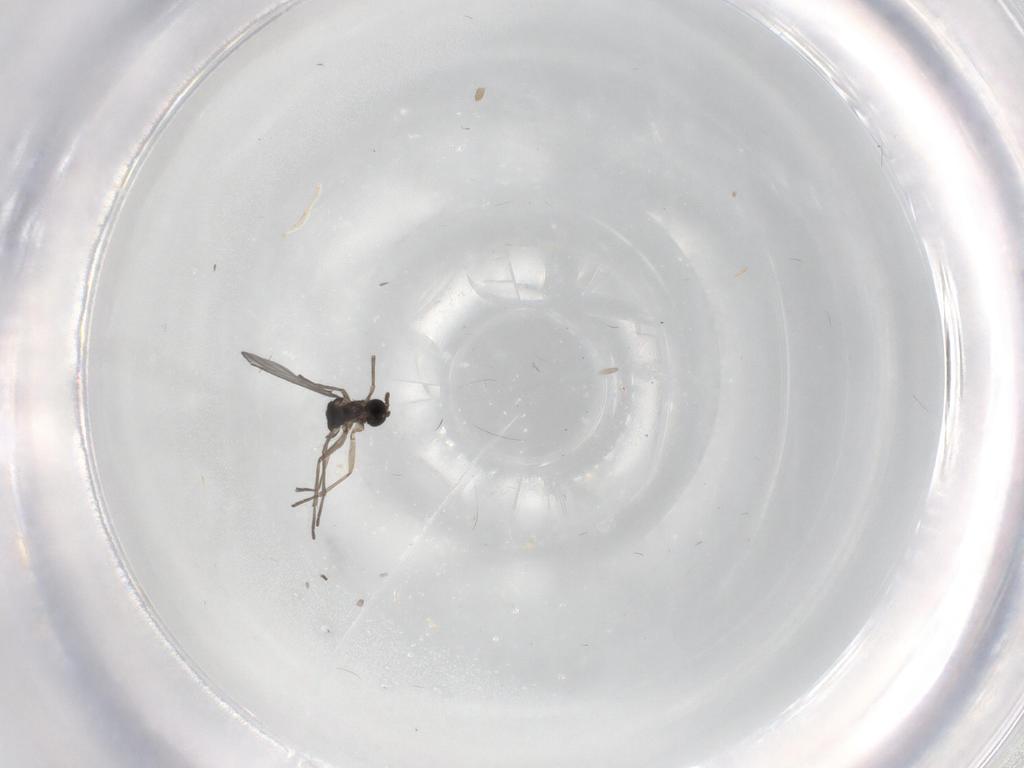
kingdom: Animalia
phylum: Arthropoda
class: Insecta
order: Diptera
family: Sciaridae
